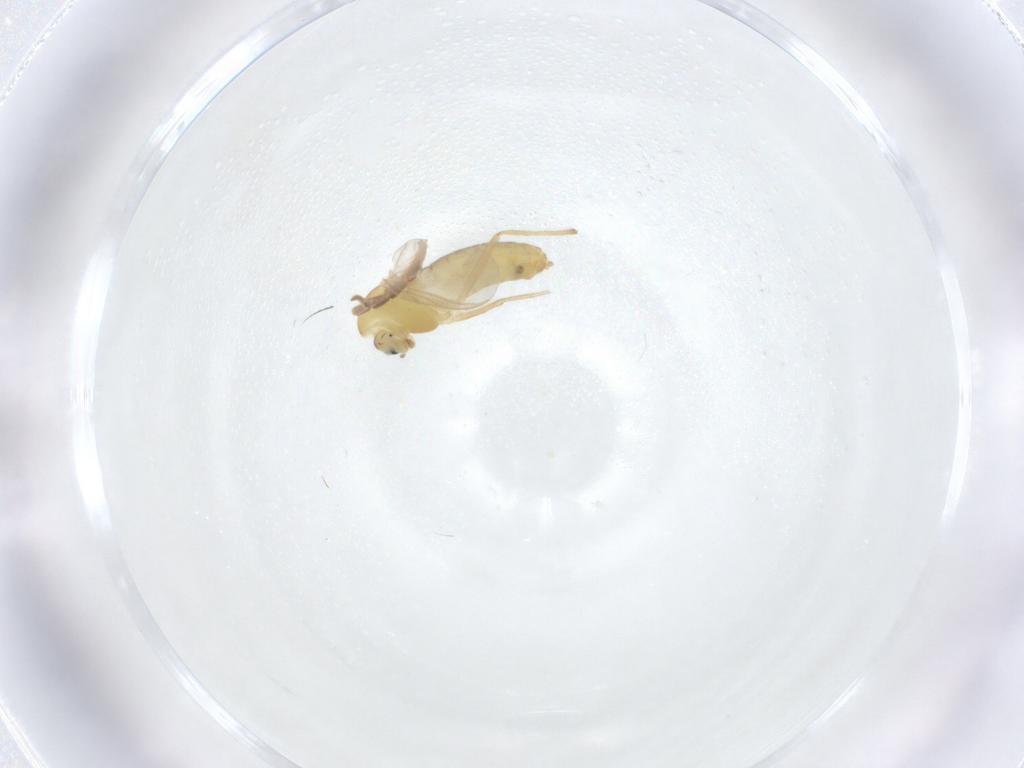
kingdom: Animalia
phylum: Arthropoda
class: Insecta
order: Diptera
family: Chironomidae
